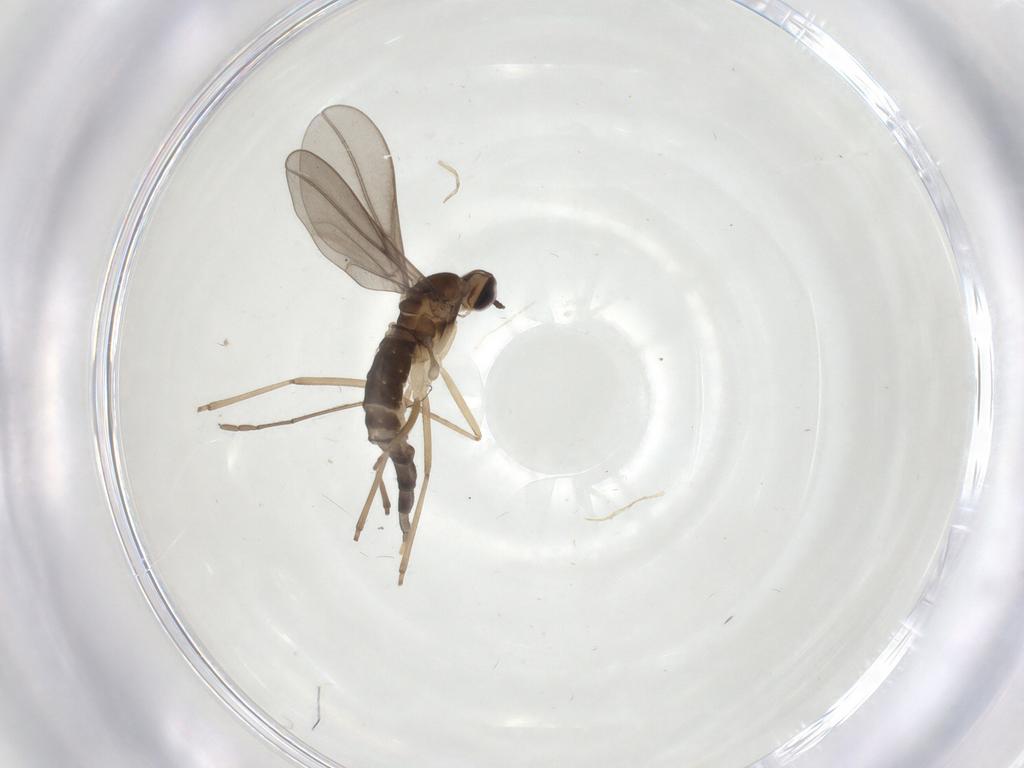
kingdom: Animalia
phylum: Arthropoda
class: Insecta
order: Diptera
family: Cecidomyiidae
